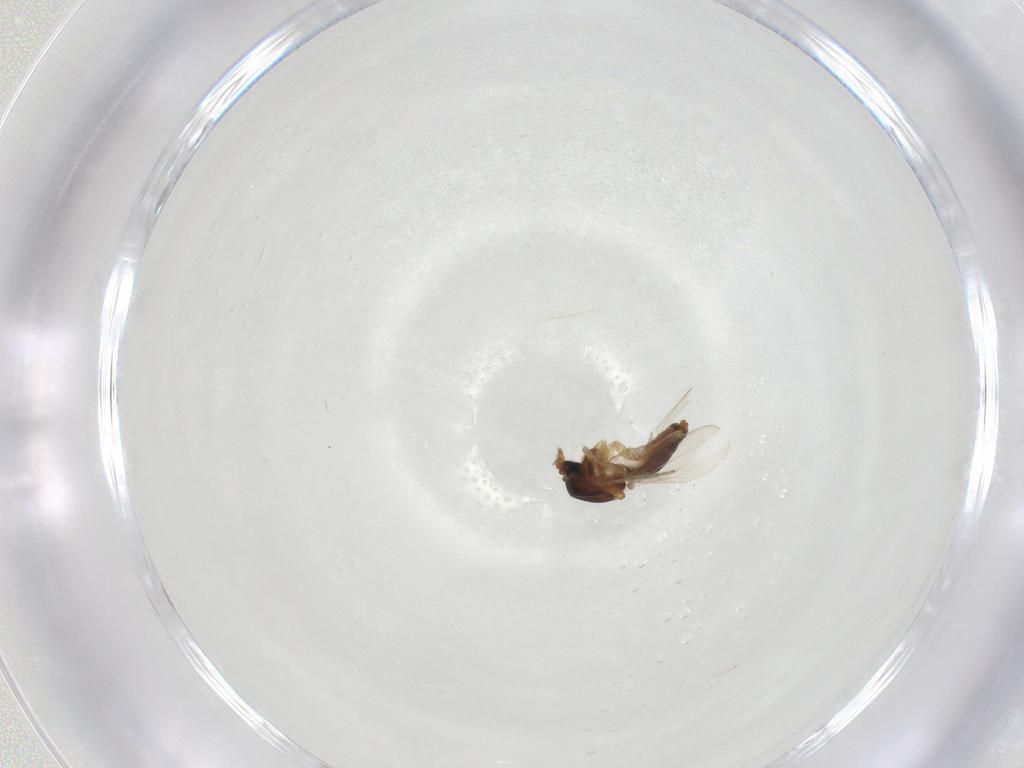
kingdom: Animalia
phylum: Arthropoda
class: Insecta
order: Diptera
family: Ceratopogonidae
